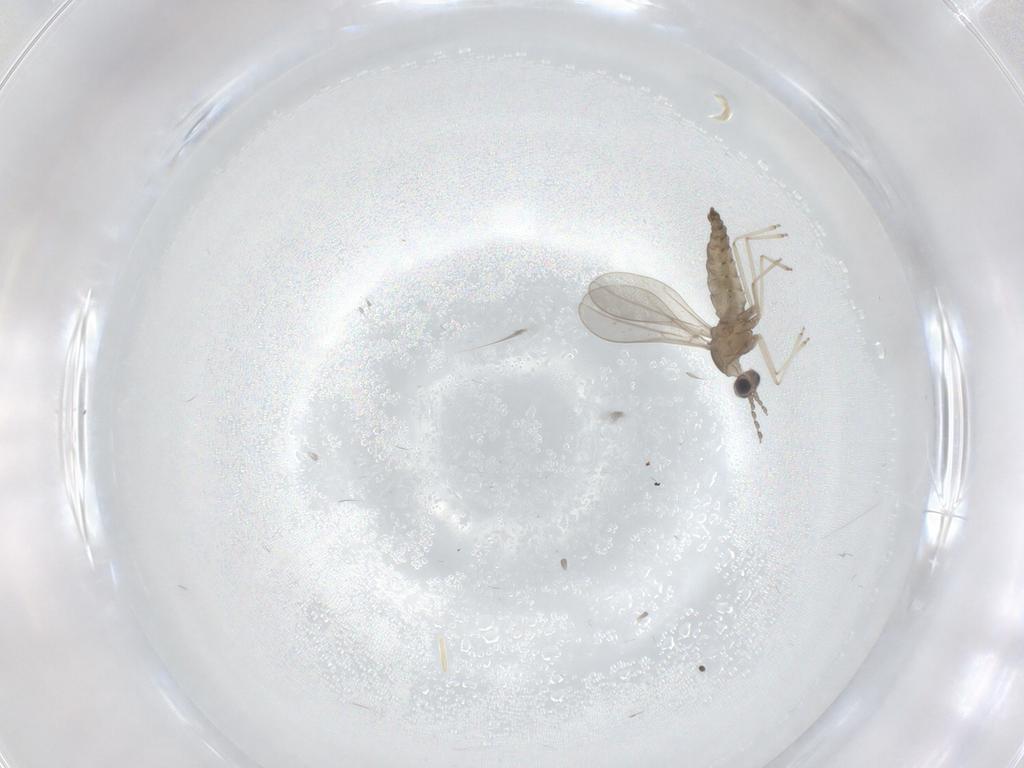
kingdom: Animalia
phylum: Arthropoda
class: Insecta
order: Diptera
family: Cecidomyiidae
